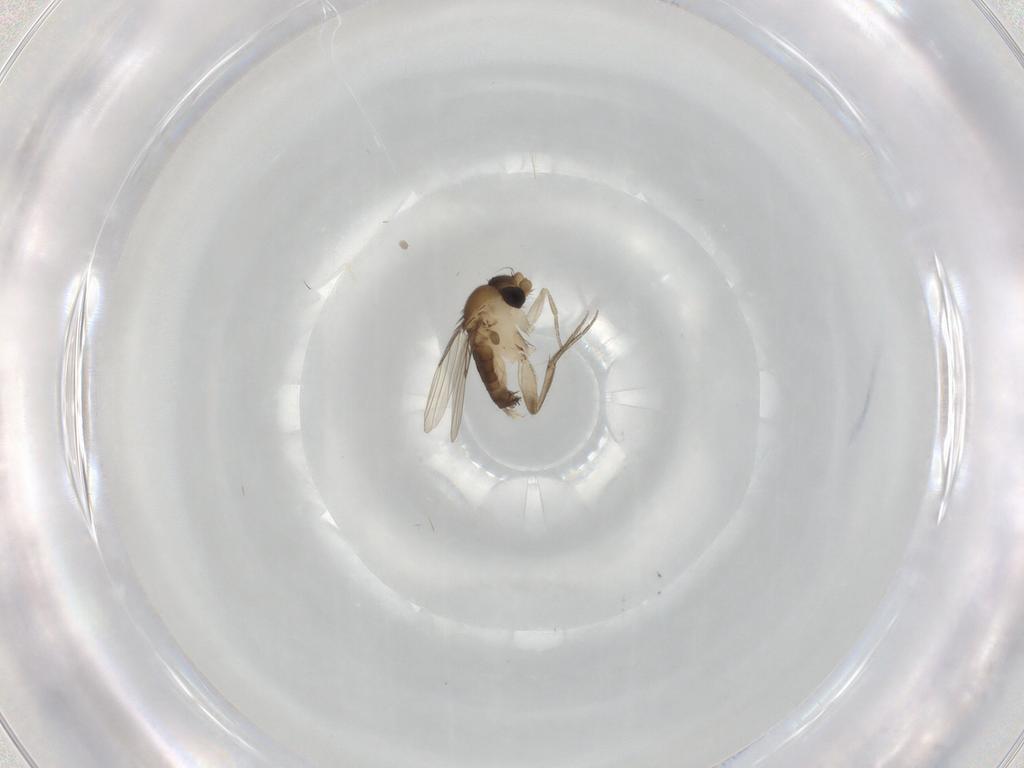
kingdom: Animalia
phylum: Arthropoda
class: Insecta
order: Diptera
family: Phoridae
